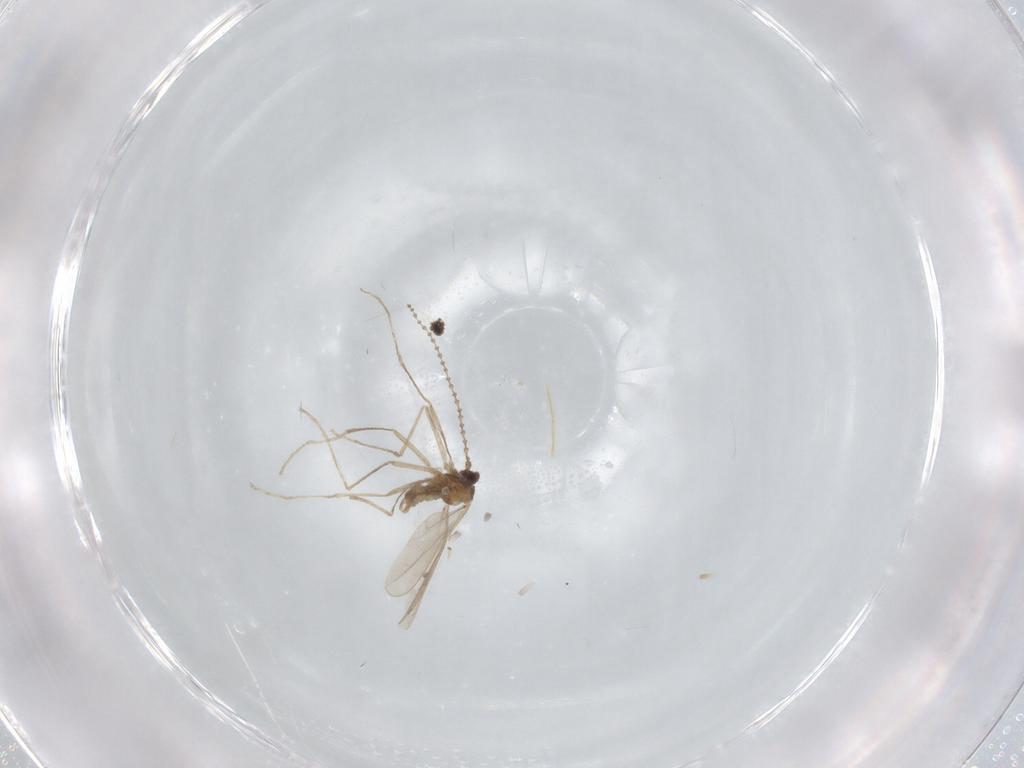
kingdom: Animalia
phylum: Arthropoda
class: Insecta
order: Diptera
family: Cecidomyiidae
